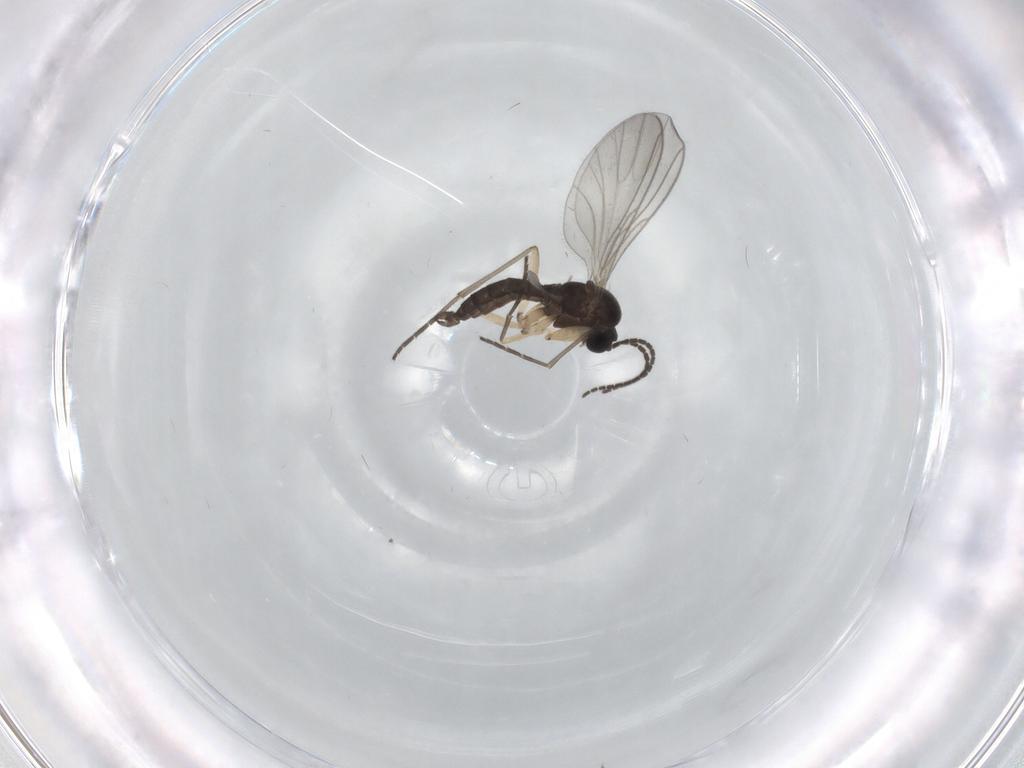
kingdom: Animalia
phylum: Arthropoda
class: Insecta
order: Diptera
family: Sciaridae
